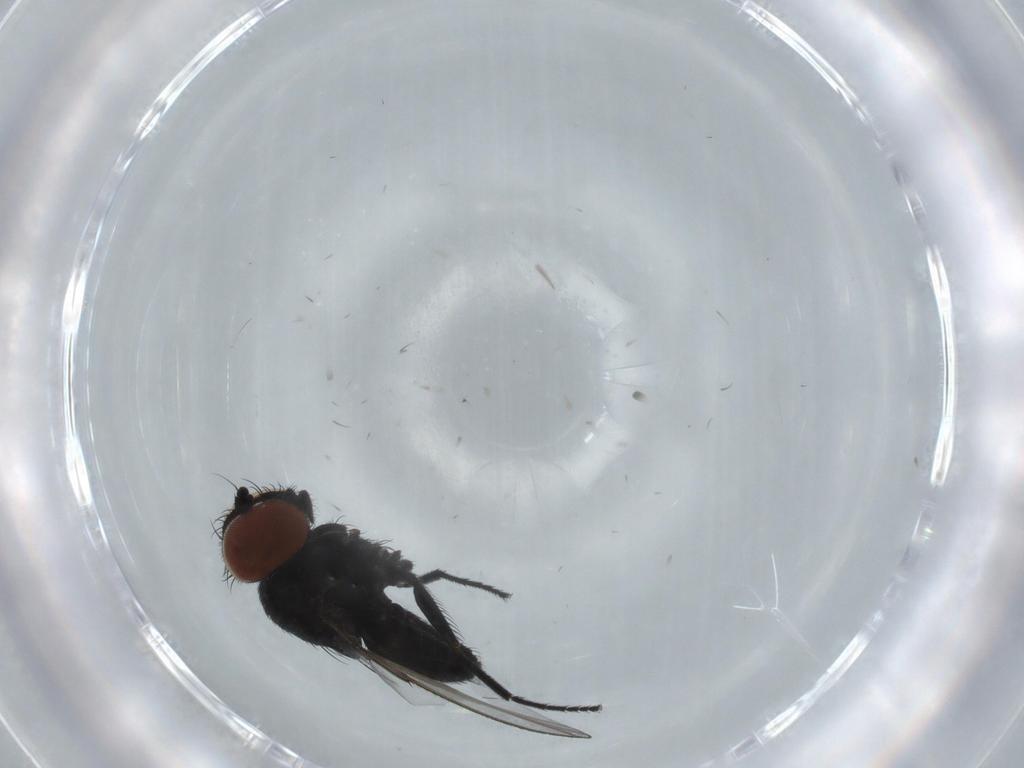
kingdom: Animalia
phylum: Arthropoda
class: Insecta
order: Diptera
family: Milichiidae
